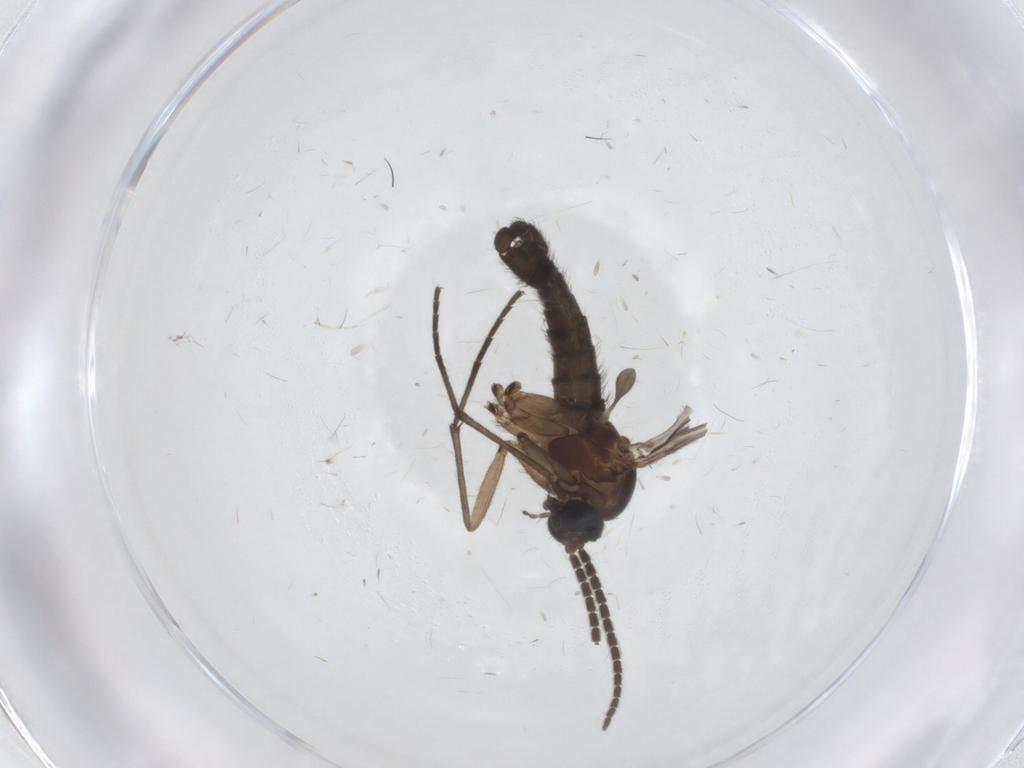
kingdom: Animalia
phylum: Arthropoda
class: Insecta
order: Diptera
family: Sciaridae
